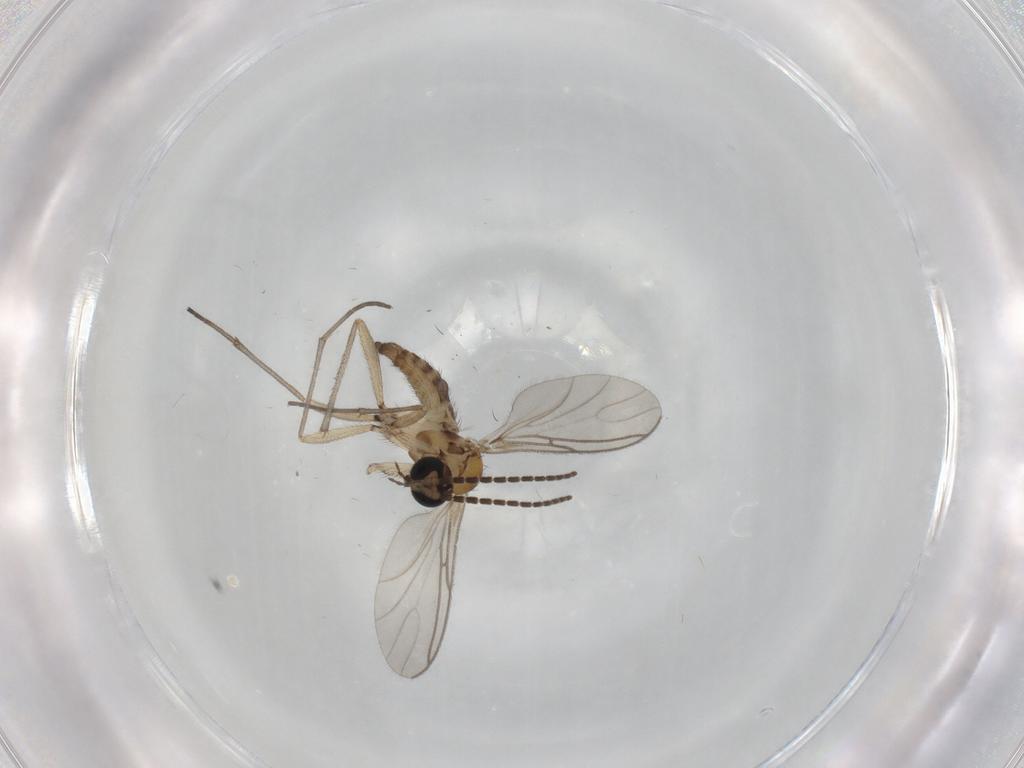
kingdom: Animalia
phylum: Arthropoda
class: Insecta
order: Diptera
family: Sciaridae
